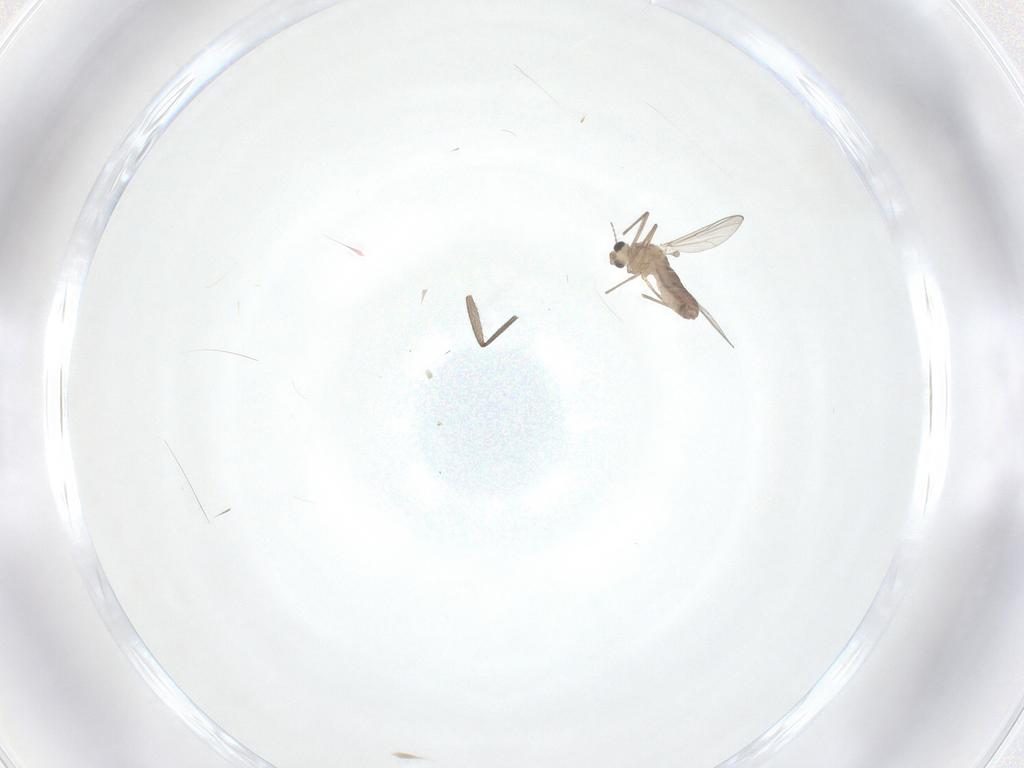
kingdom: Animalia
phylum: Arthropoda
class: Insecta
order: Diptera
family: Chironomidae
